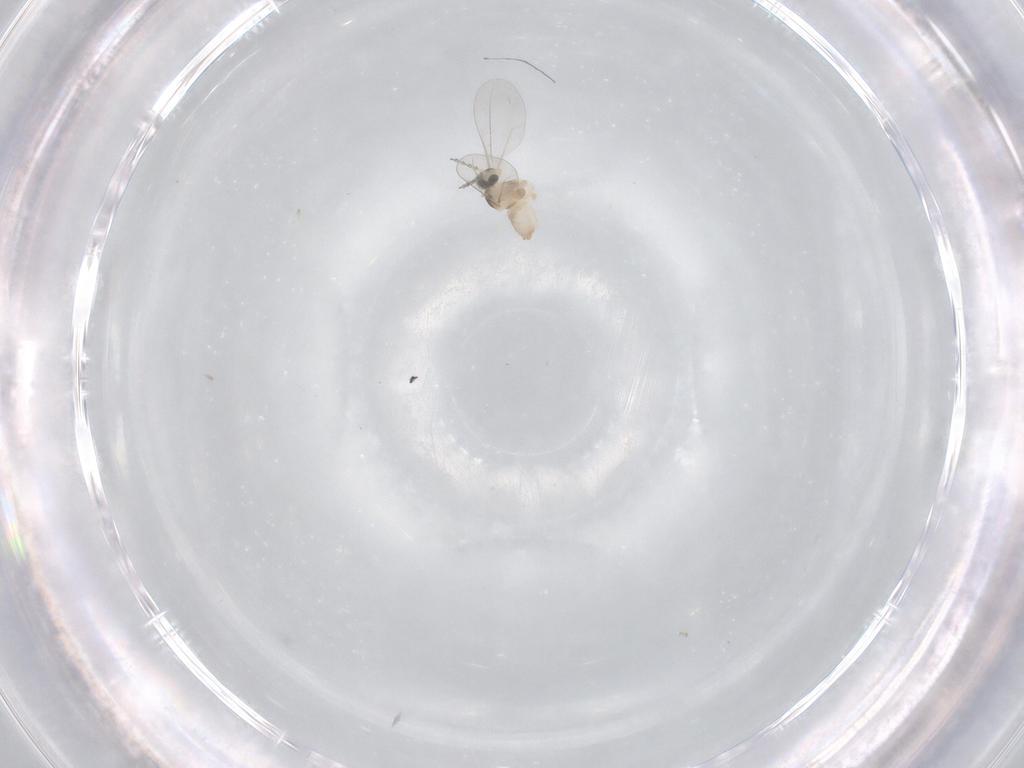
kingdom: Animalia
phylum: Arthropoda
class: Insecta
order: Diptera
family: Cecidomyiidae
